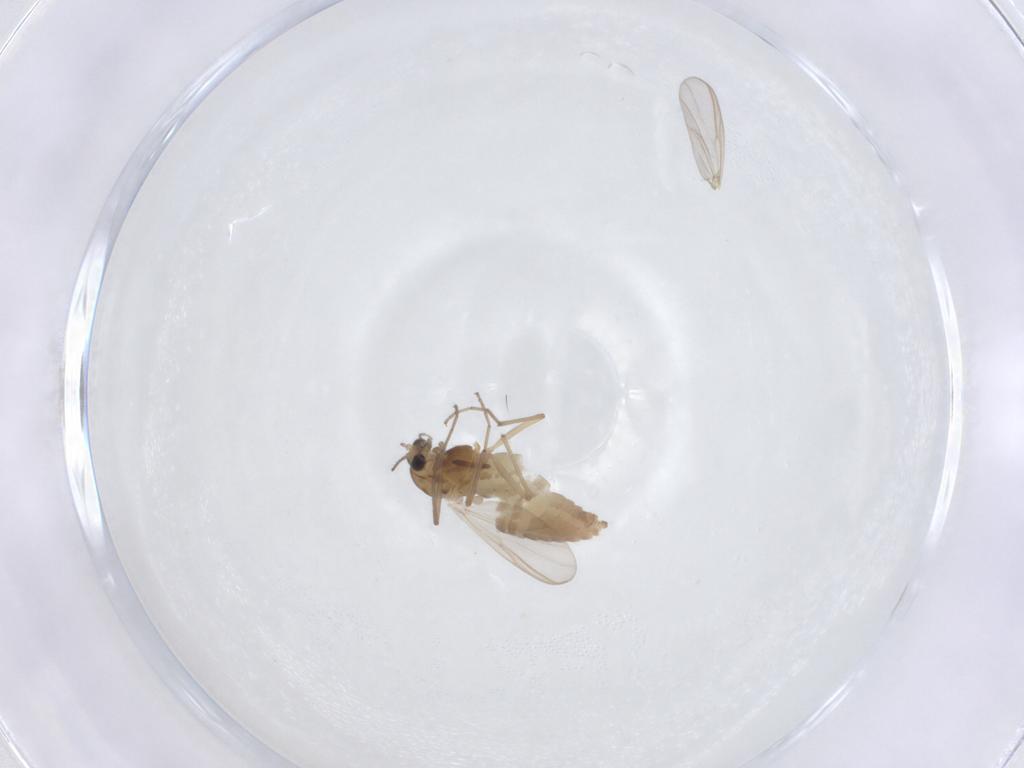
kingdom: Animalia
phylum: Arthropoda
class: Insecta
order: Diptera
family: Chironomidae
